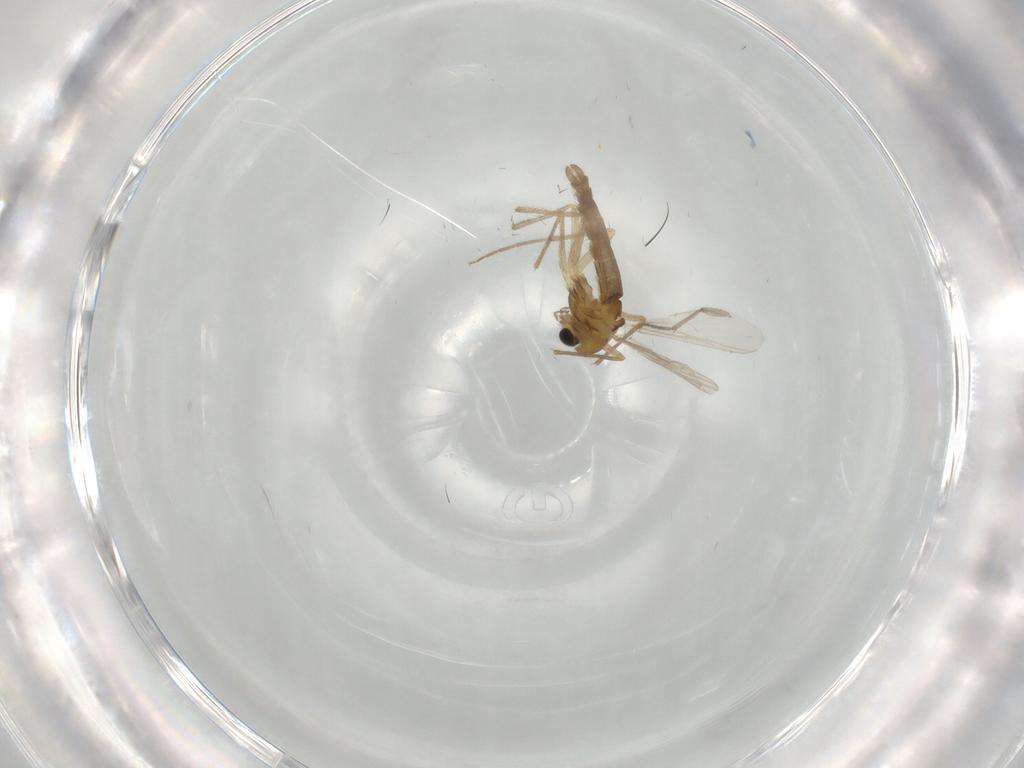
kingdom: Animalia
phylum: Arthropoda
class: Insecta
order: Diptera
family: Sciaridae
